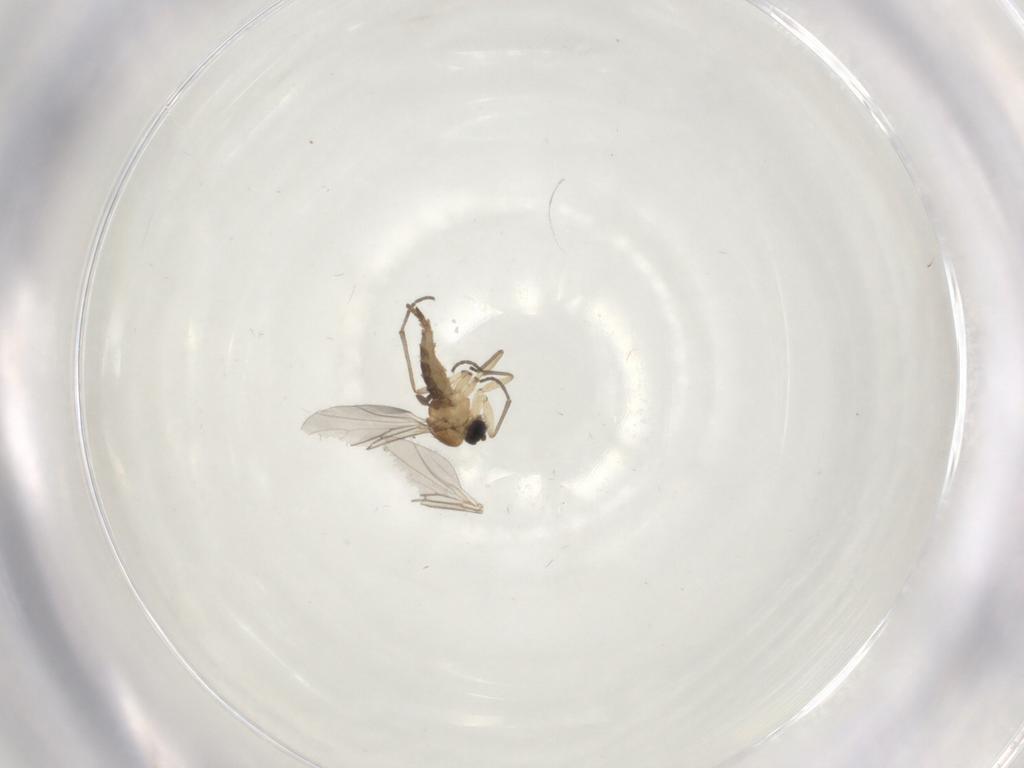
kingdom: Animalia
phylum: Arthropoda
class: Insecta
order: Diptera
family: Sciaridae
